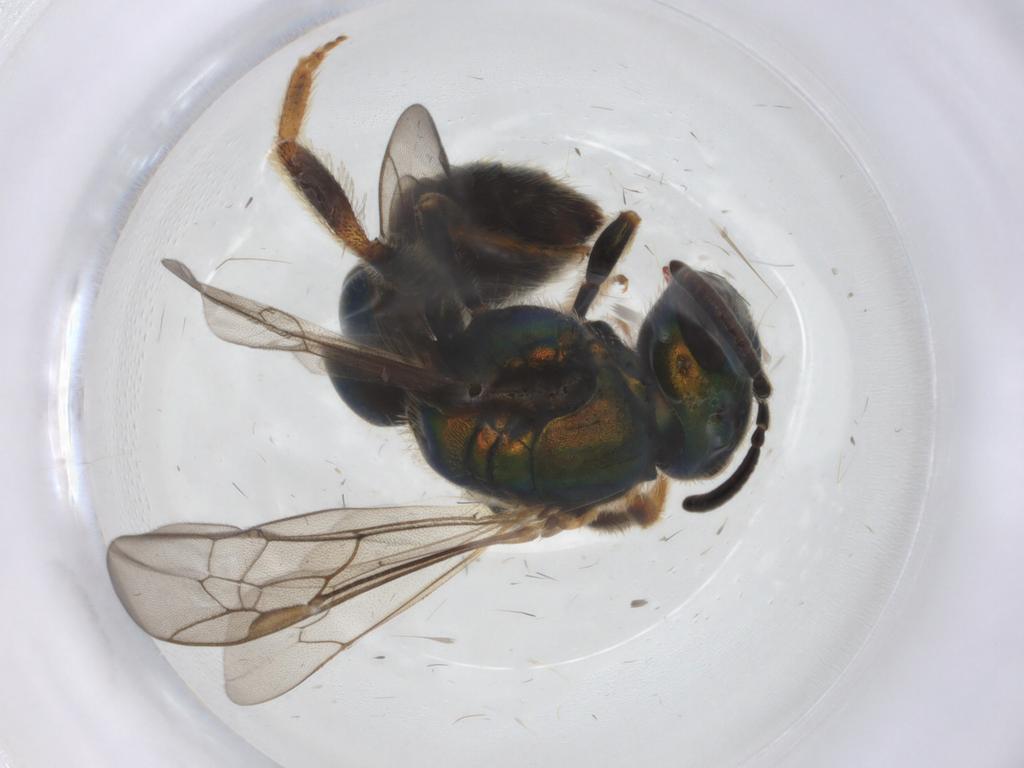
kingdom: Animalia
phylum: Arthropoda
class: Insecta
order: Hymenoptera
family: Halictidae
